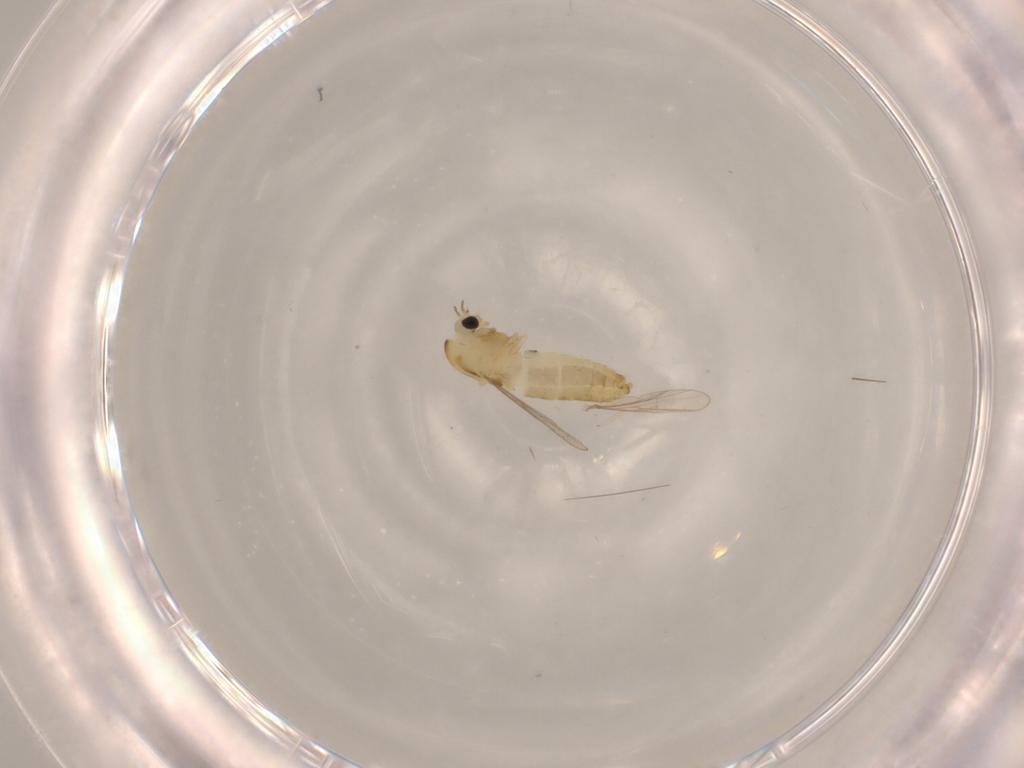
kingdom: Animalia
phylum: Arthropoda
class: Insecta
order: Diptera
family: Chironomidae
